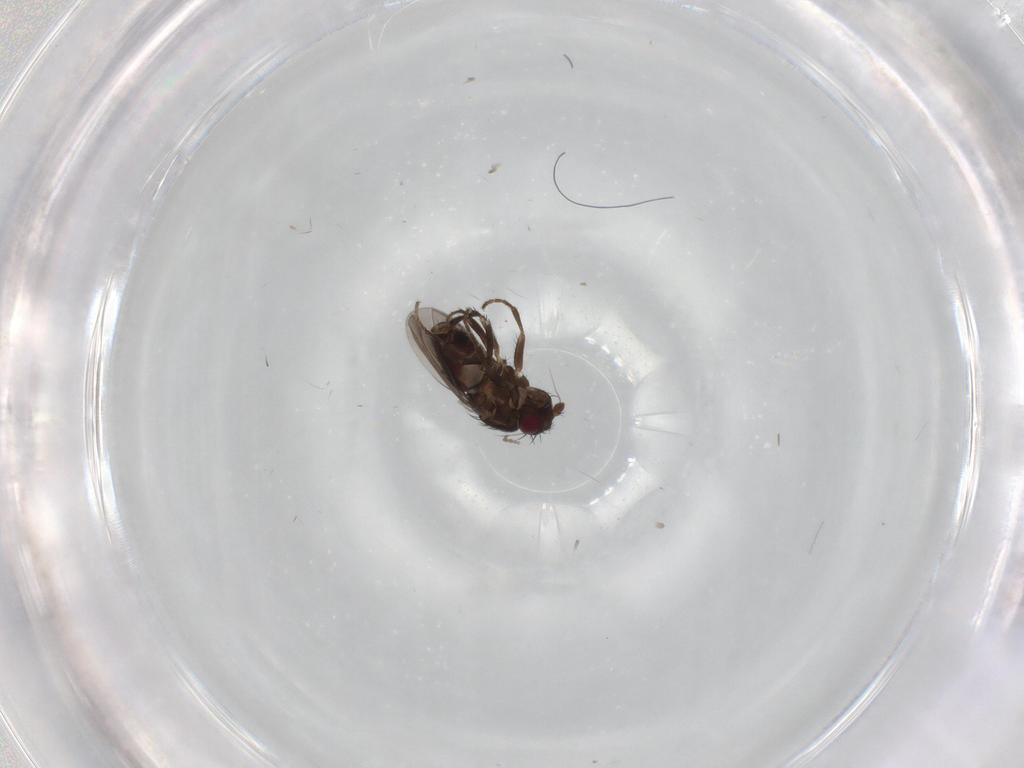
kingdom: Animalia
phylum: Arthropoda
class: Insecta
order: Diptera
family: Sphaeroceridae
